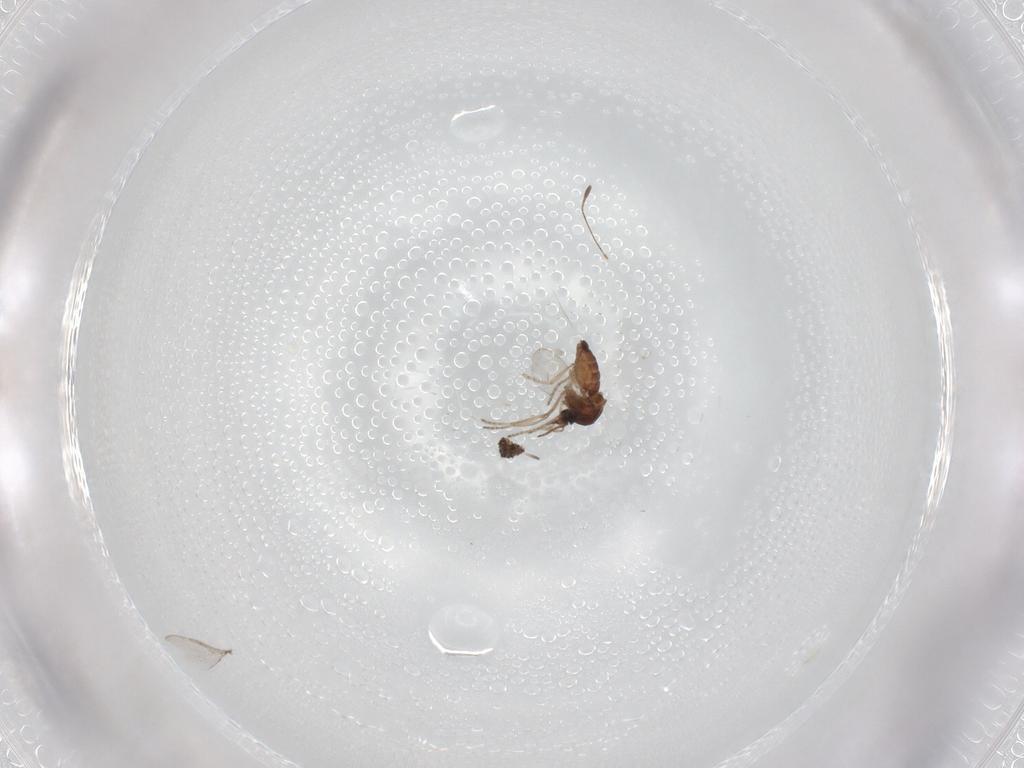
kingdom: Animalia
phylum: Arthropoda
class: Insecta
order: Diptera
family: Ceratopogonidae
